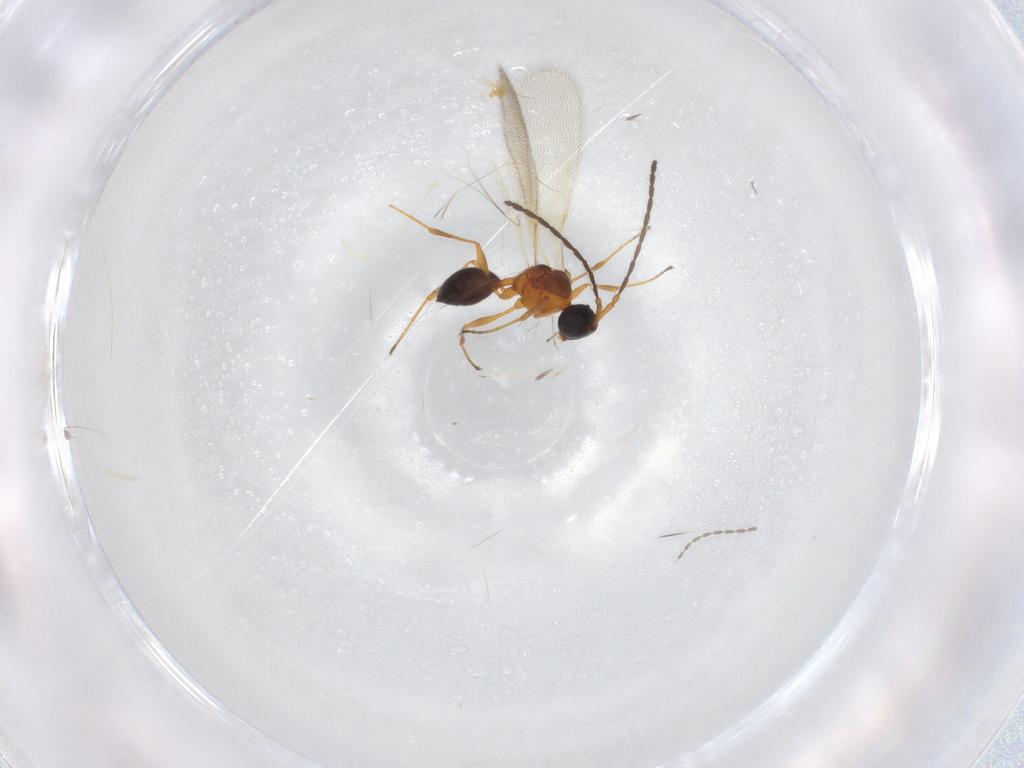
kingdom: Animalia
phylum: Arthropoda
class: Insecta
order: Hymenoptera
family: Diapriidae
